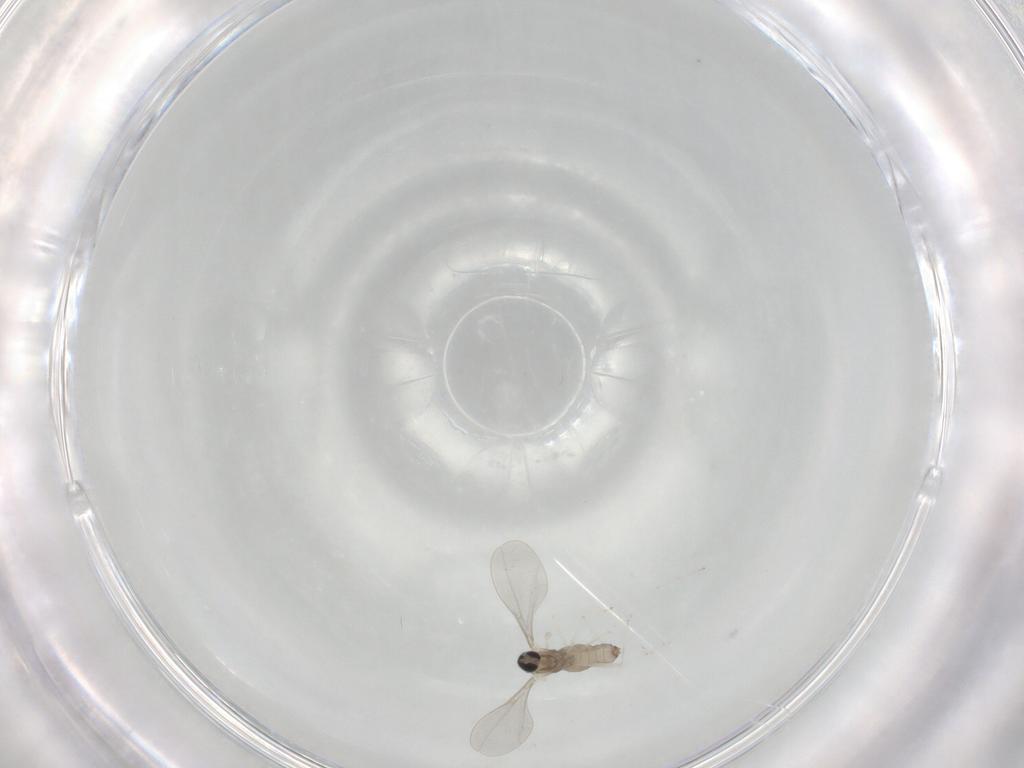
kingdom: Animalia
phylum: Arthropoda
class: Insecta
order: Diptera
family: Cecidomyiidae
